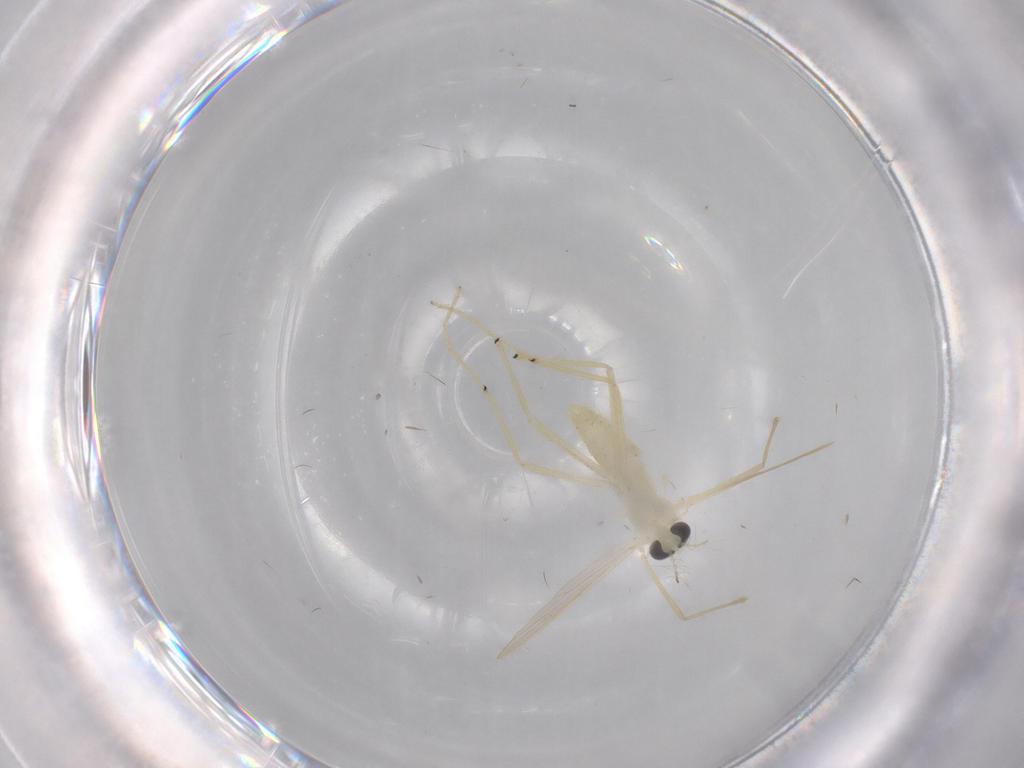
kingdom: Animalia
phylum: Arthropoda
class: Insecta
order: Diptera
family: Chironomidae
